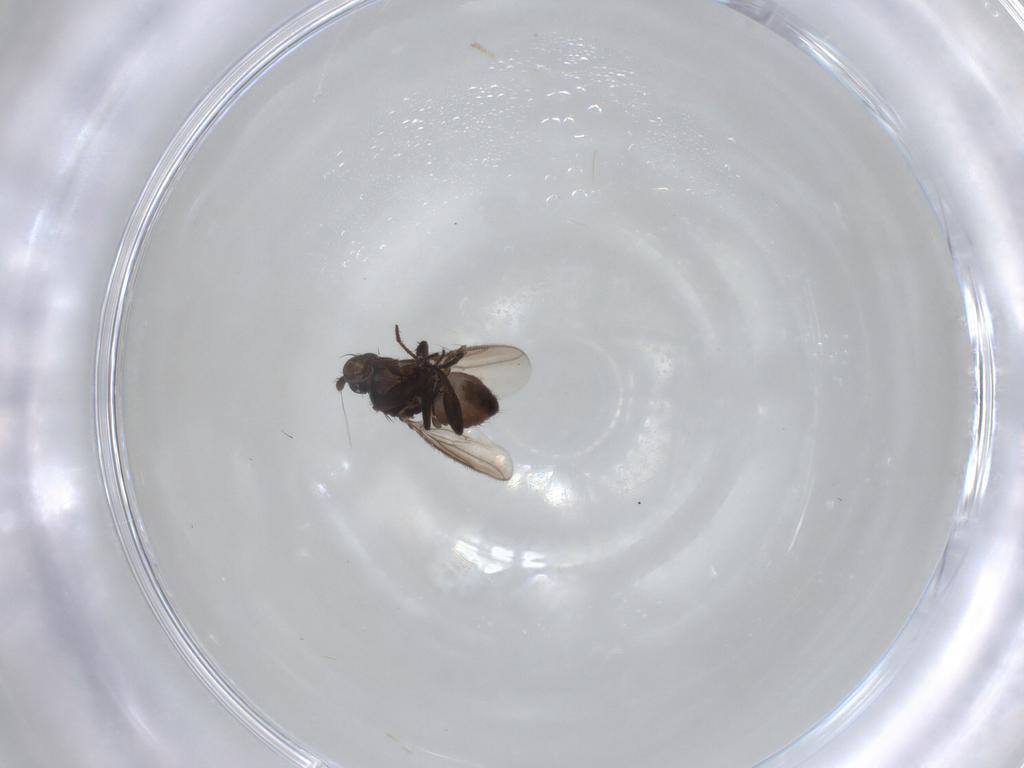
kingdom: Animalia
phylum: Arthropoda
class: Insecta
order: Diptera
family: Sphaeroceridae
